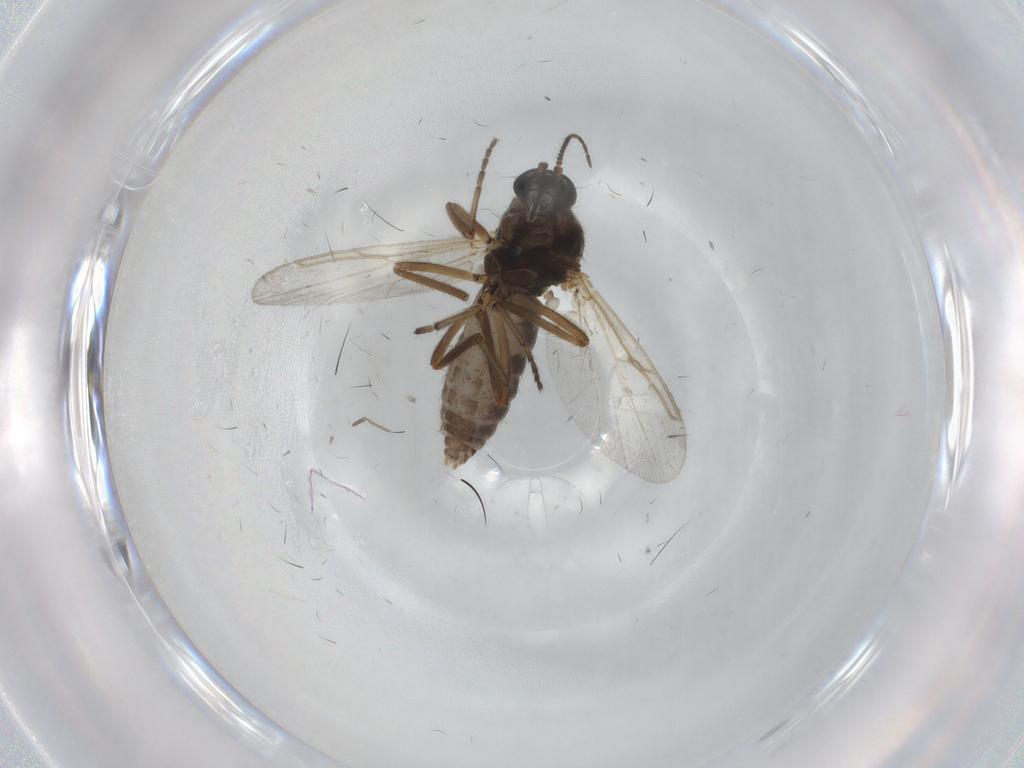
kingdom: Animalia
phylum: Arthropoda
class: Insecta
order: Diptera
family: Ceratopogonidae
